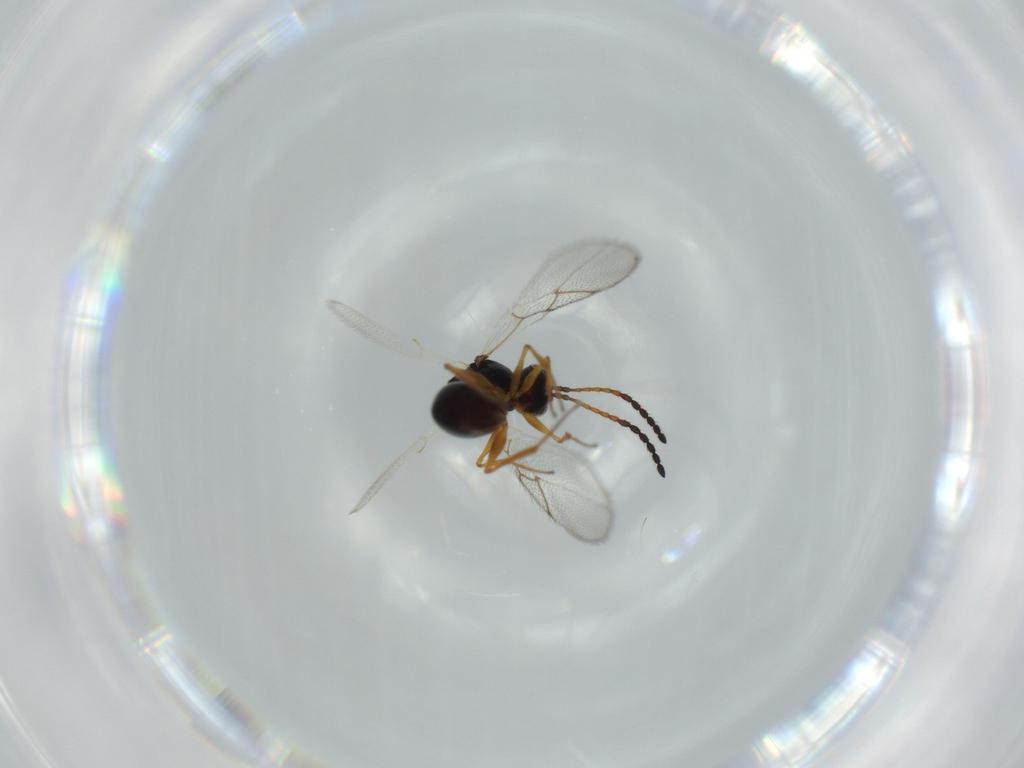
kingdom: Animalia
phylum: Arthropoda
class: Insecta
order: Hymenoptera
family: Figitidae
